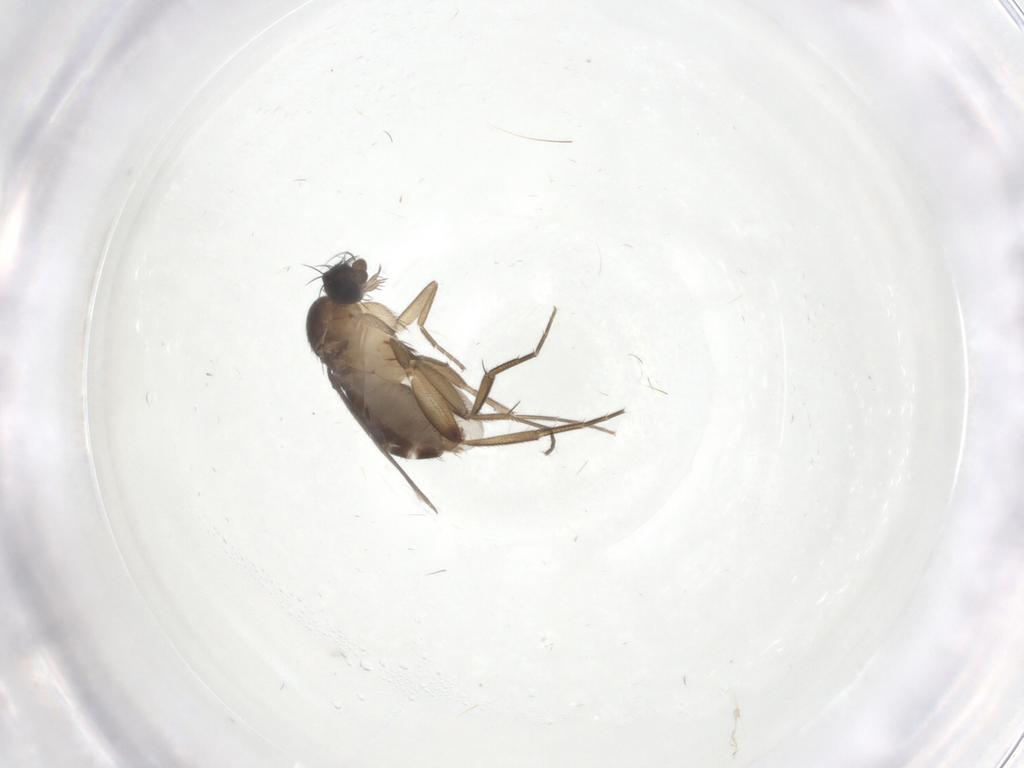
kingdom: Animalia
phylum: Arthropoda
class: Insecta
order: Diptera
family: Phoridae
